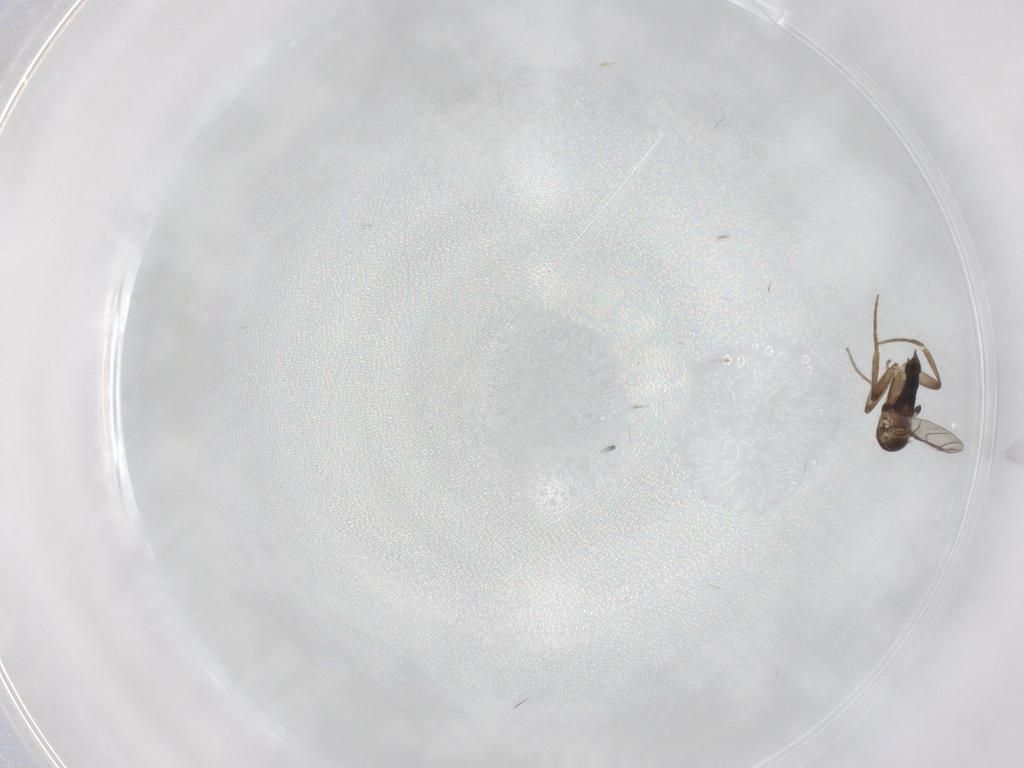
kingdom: Animalia
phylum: Arthropoda
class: Insecta
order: Diptera
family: Phoridae
